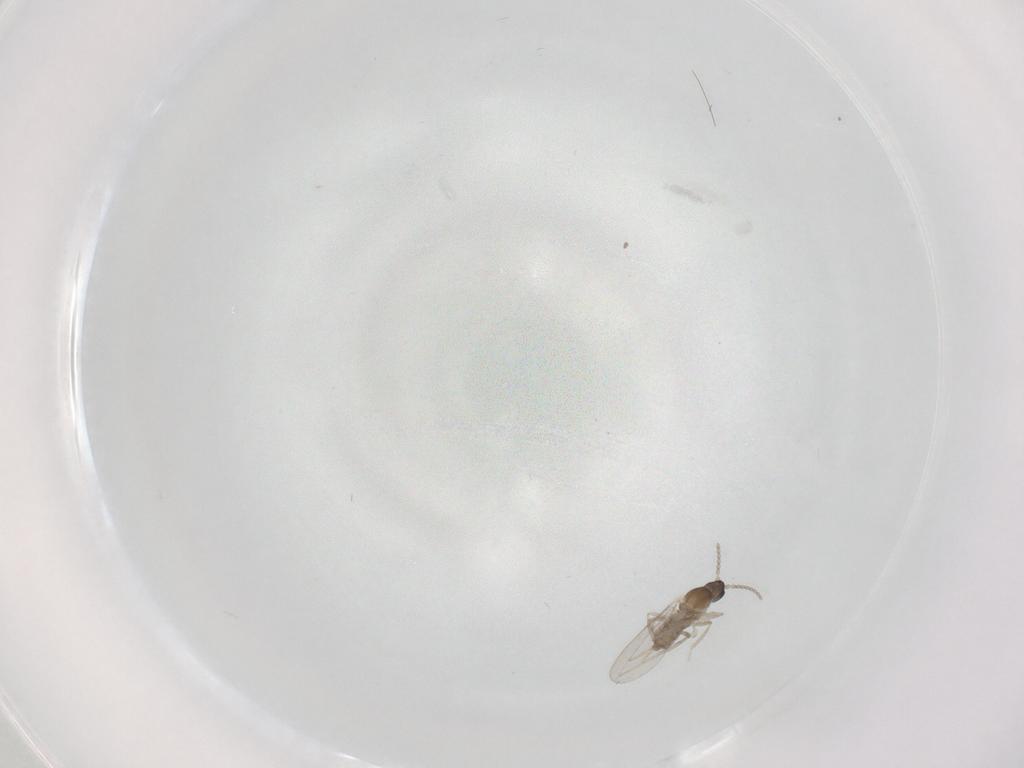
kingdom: Animalia
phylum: Arthropoda
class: Insecta
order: Diptera
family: Cecidomyiidae
